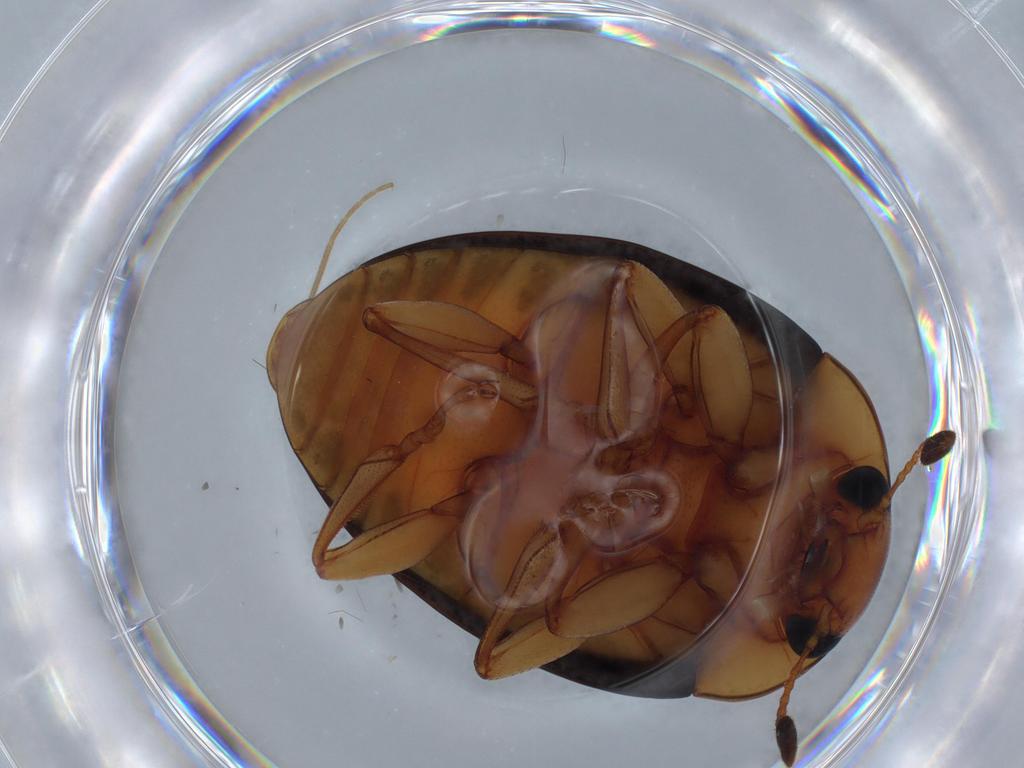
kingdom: Animalia
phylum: Arthropoda
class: Insecta
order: Coleoptera
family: Erotylidae
